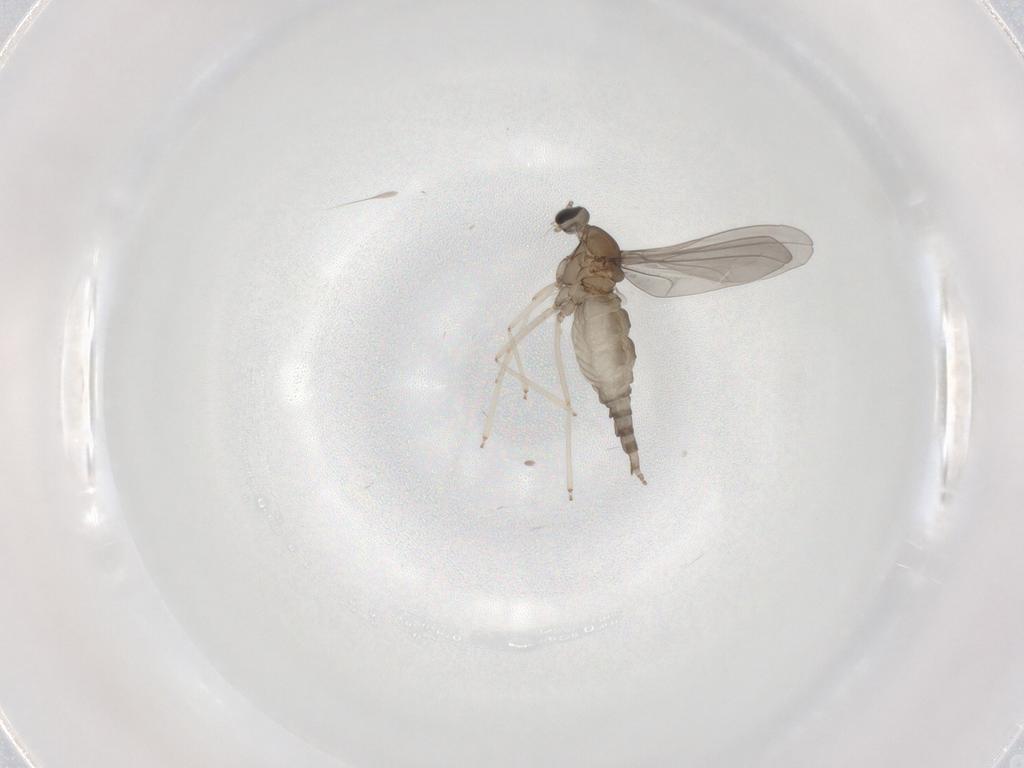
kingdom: Animalia
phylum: Arthropoda
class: Insecta
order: Diptera
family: Cecidomyiidae
